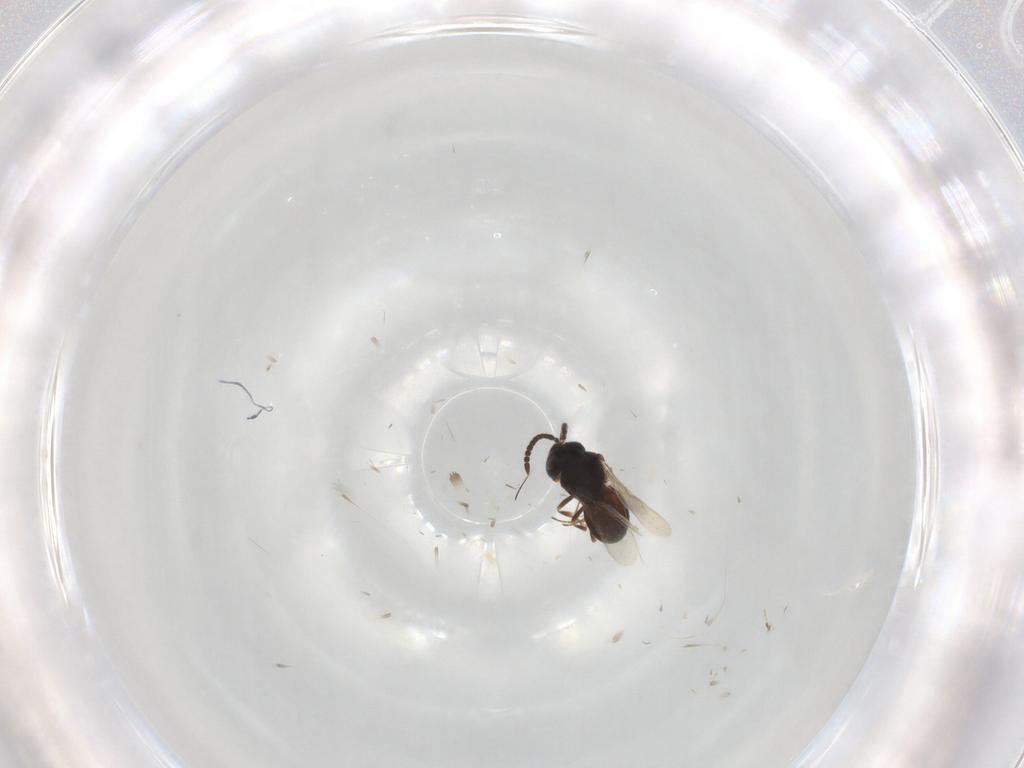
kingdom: Animalia
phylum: Arthropoda
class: Insecta
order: Hymenoptera
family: Scelionidae
